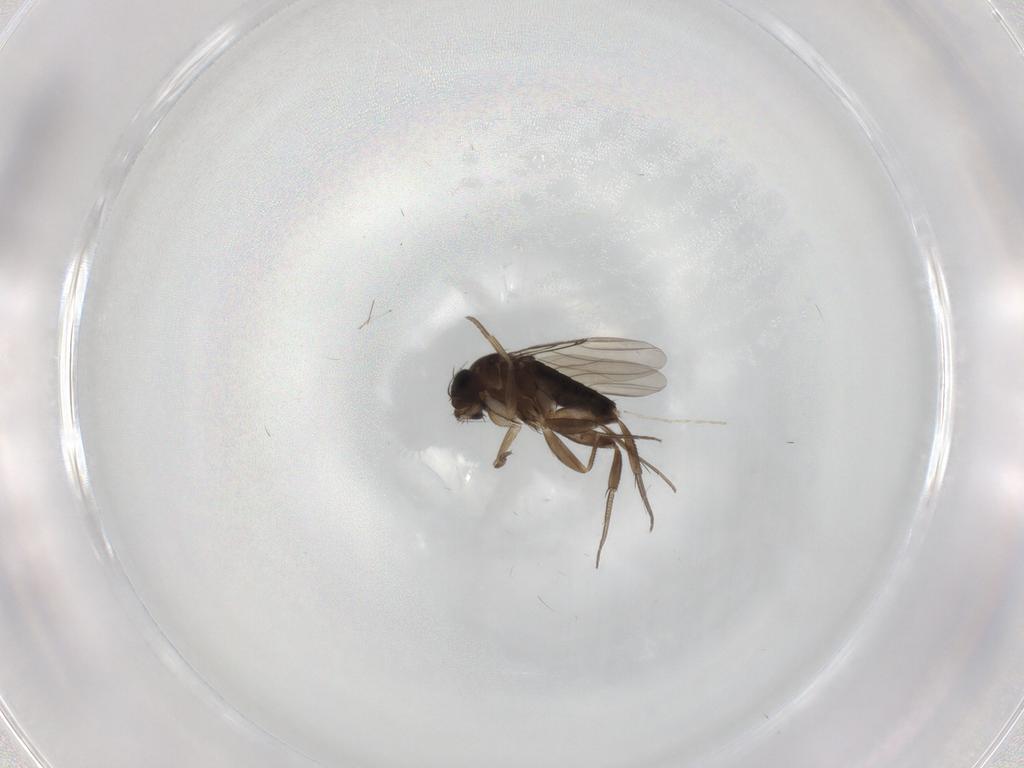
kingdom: Animalia
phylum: Arthropoda
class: Insecta
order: Diptera
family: Phoridae
